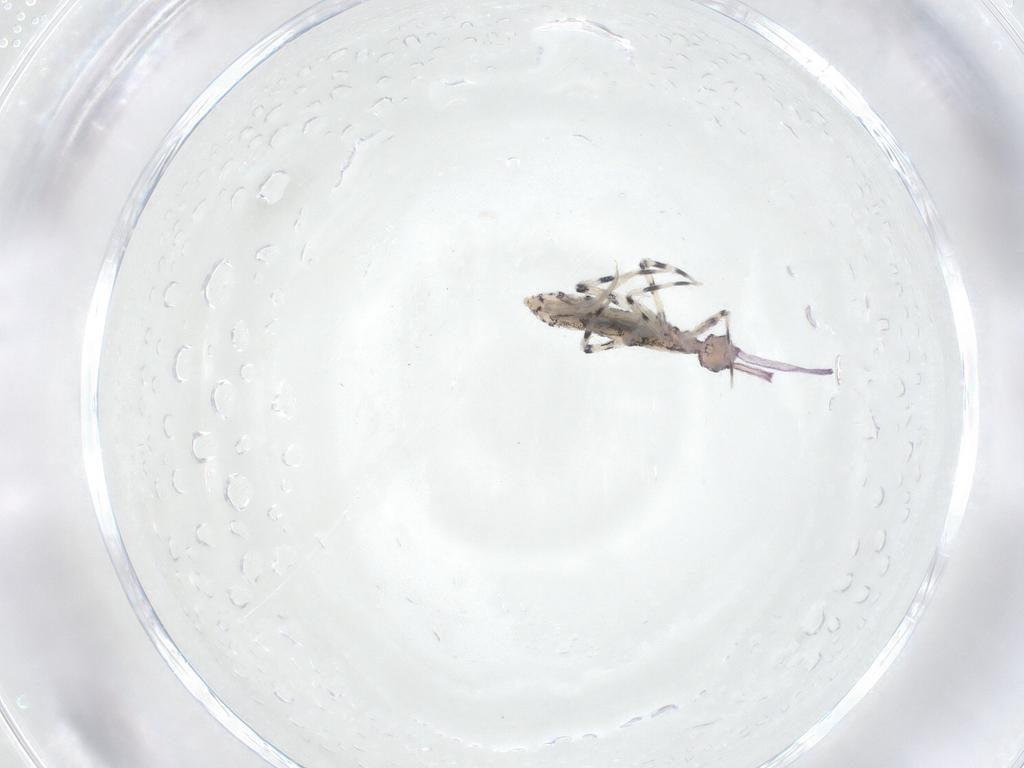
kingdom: Animalia
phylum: Arthropoda
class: Collembola
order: Entomobryomorpha
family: Entomobryidae
